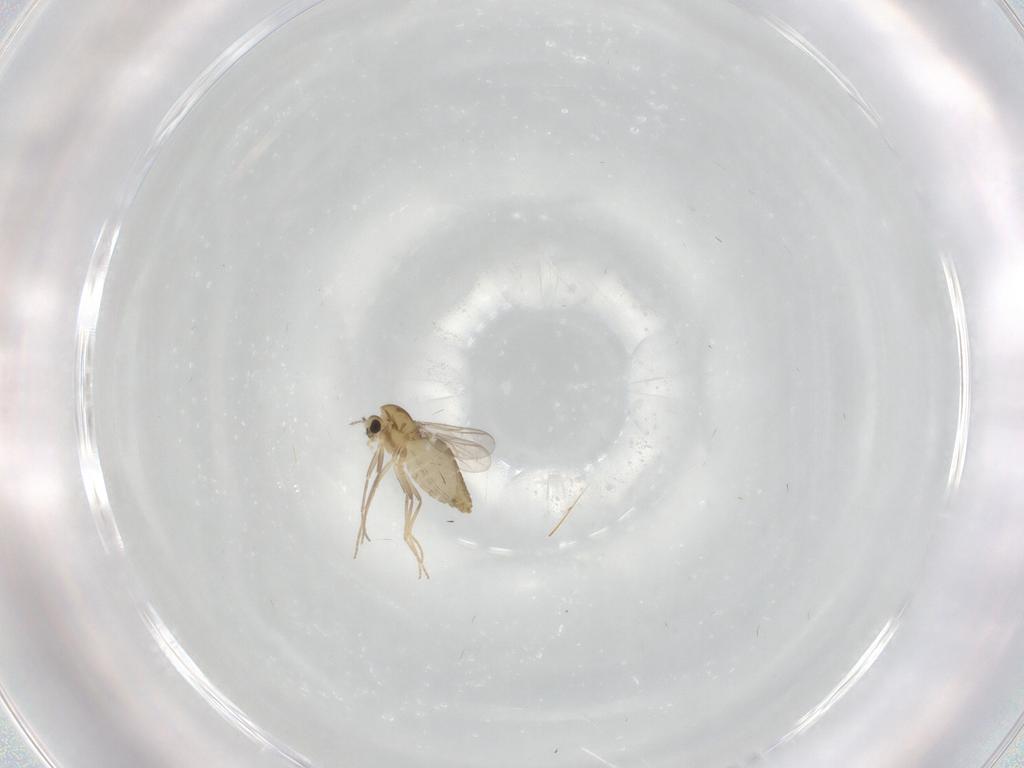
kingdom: Animalia
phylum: Arthropoda
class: Insecta
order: Diptera
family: Chironomidae
